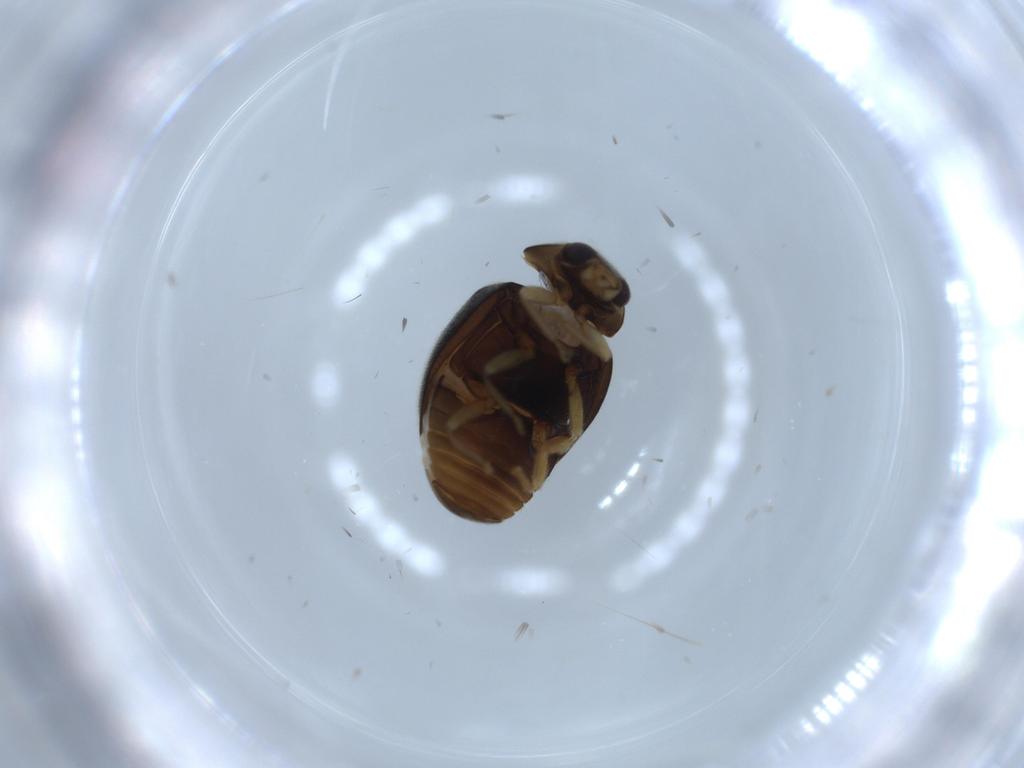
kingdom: Animalia
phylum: Arthropoda
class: Insecta
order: Coleoptera
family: Coccinellidae
